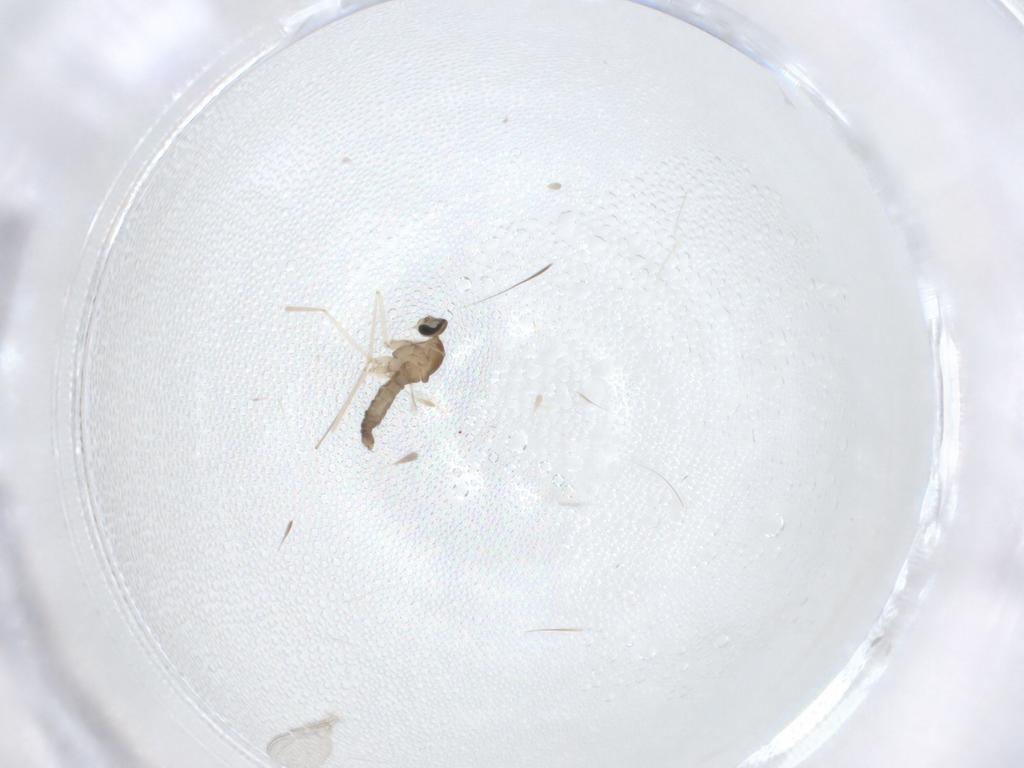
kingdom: Animalia
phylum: Arthropoda
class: Insecta
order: Diptera
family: Cecidomyiidae
